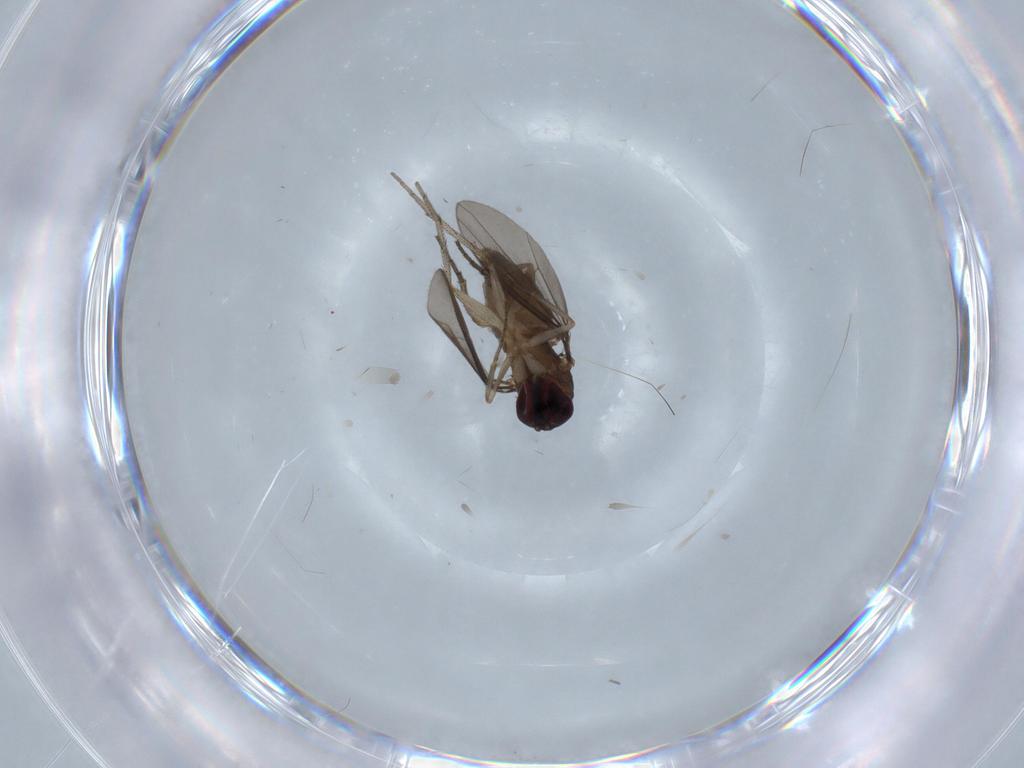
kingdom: Animalia
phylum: Arthropoda
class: Insecta
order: Diptera
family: Dolichopodidae
